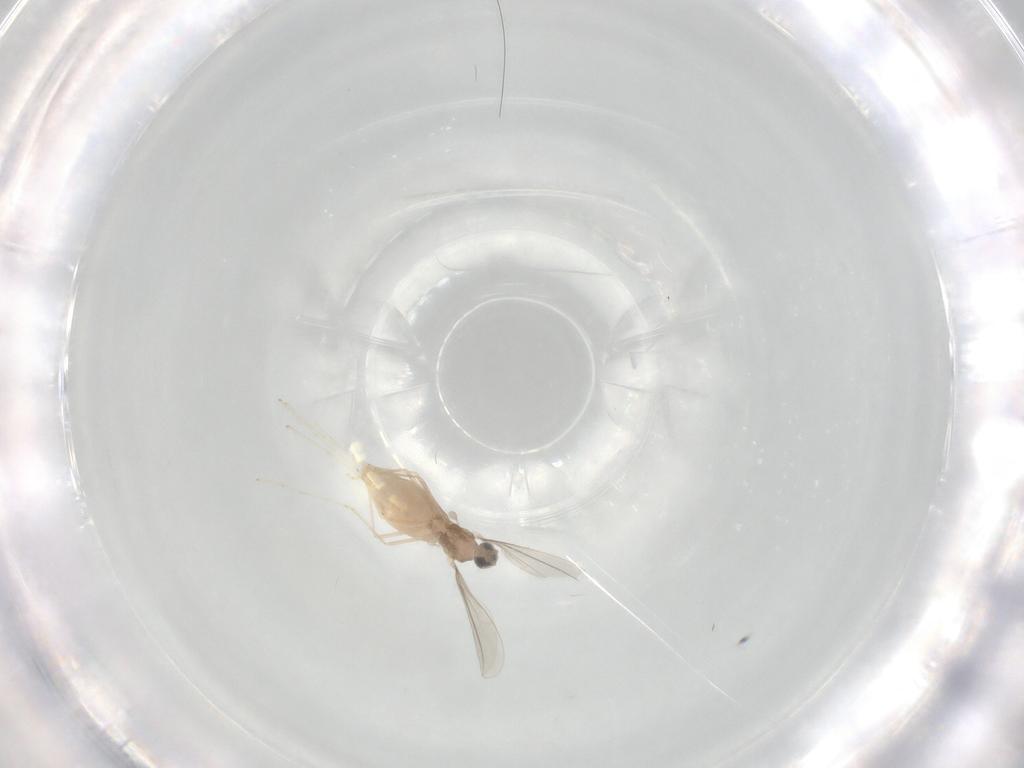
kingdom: Animalia
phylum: Arthropoda
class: Insecta
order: Diptera
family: Cecidomyiidae
